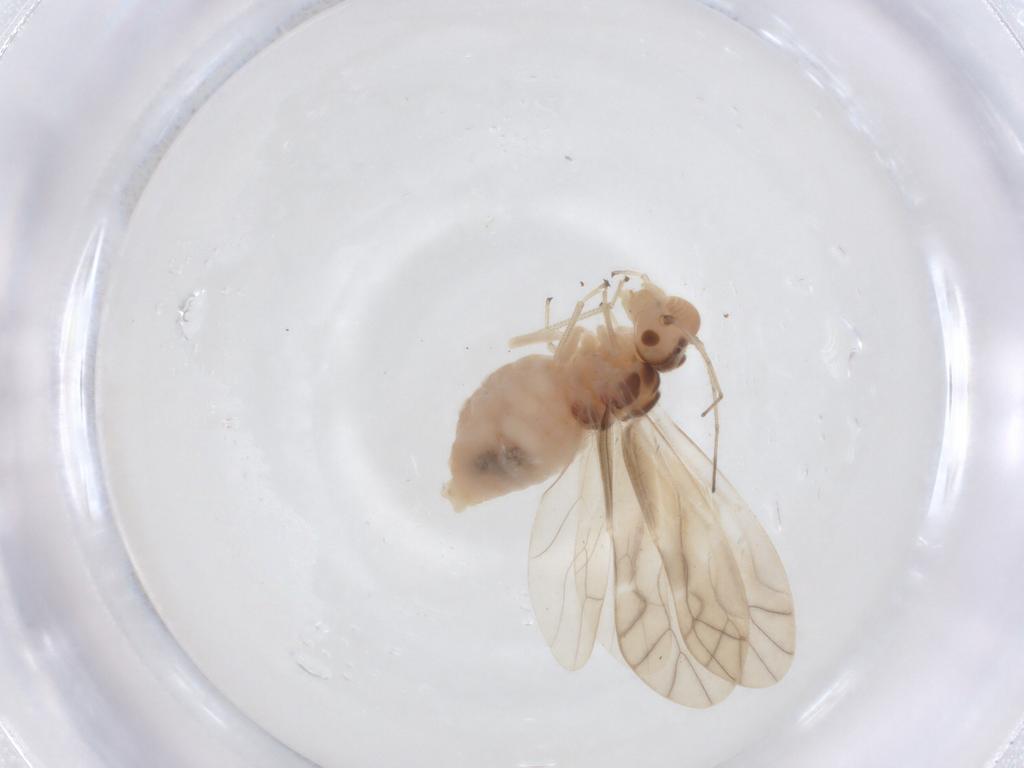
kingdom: Animalia
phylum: Arthropoda
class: Insecta
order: Psocodea
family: Caeciliusidae
